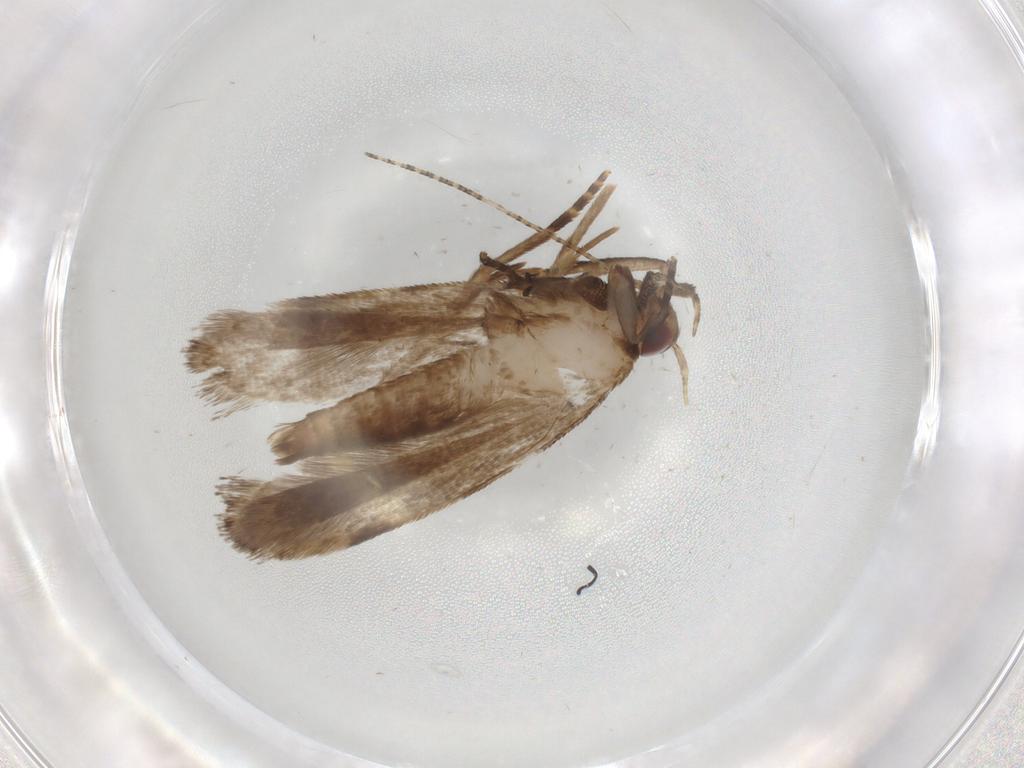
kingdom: Animalia
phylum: Arthropoda
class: Insecta
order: Lepidoptera
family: Gelechiidae
